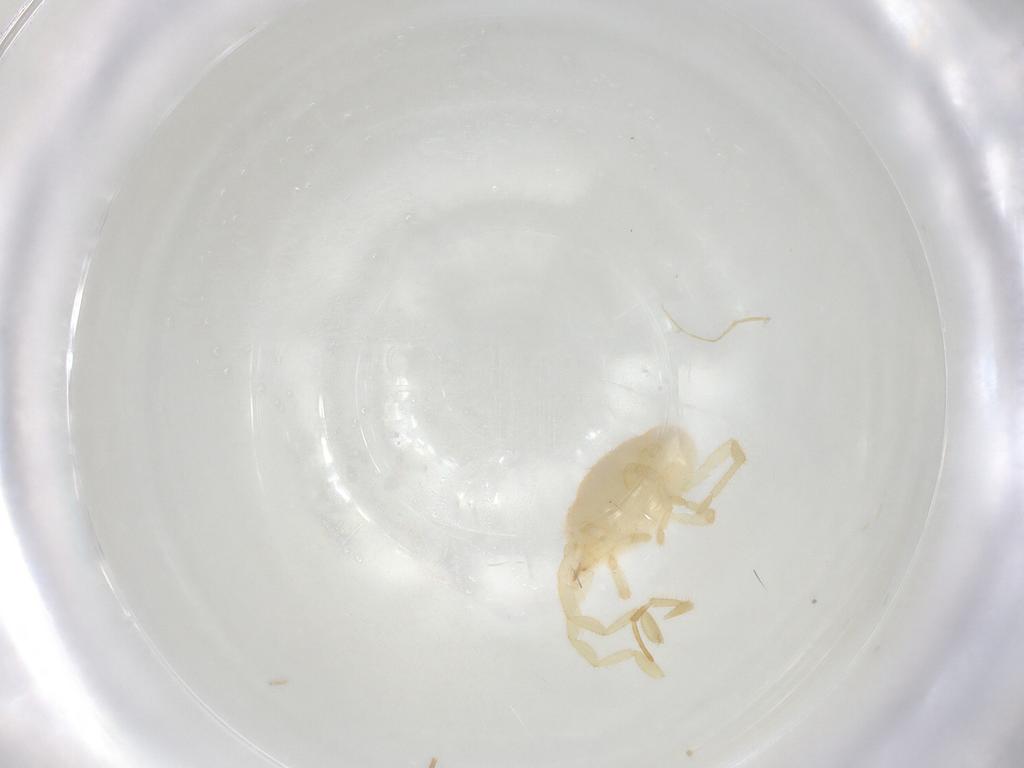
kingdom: Animalia
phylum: Arthropoda
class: Arachnida
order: Trombidiformes
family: Erythraeidae
